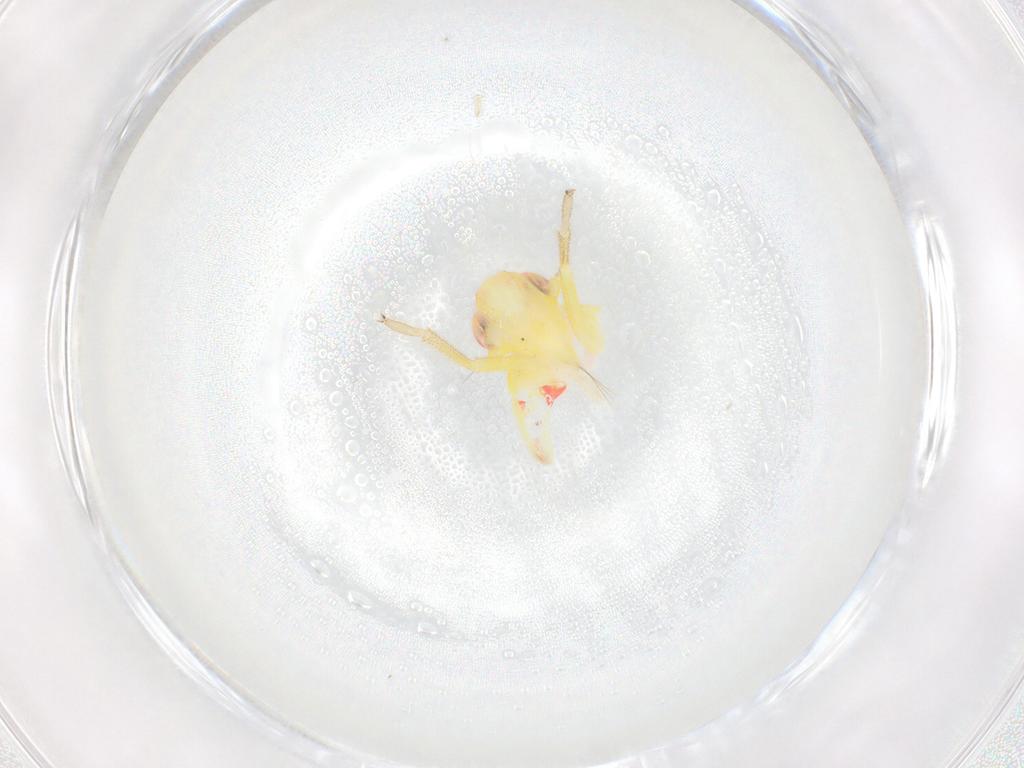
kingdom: Animalia
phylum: Arthropoda
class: Insecta
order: Hemiptera
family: Tropiduchidae
